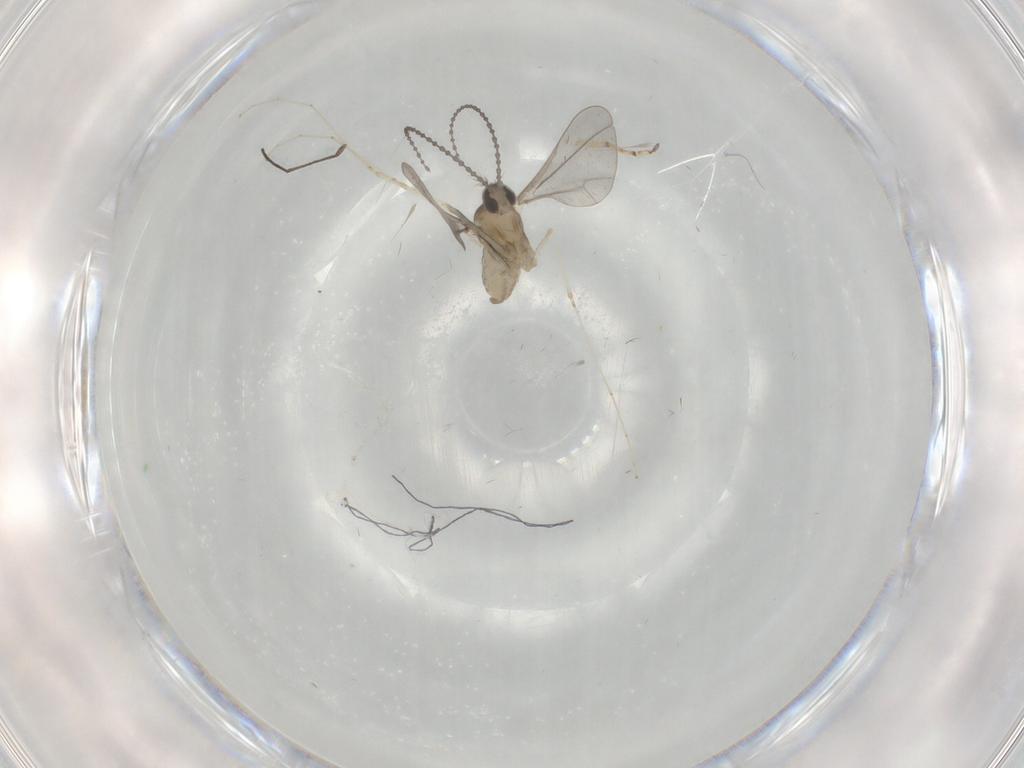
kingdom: Animalia
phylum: Arthropoda
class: Insecta
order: Diptera
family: Cecidomyiidae
